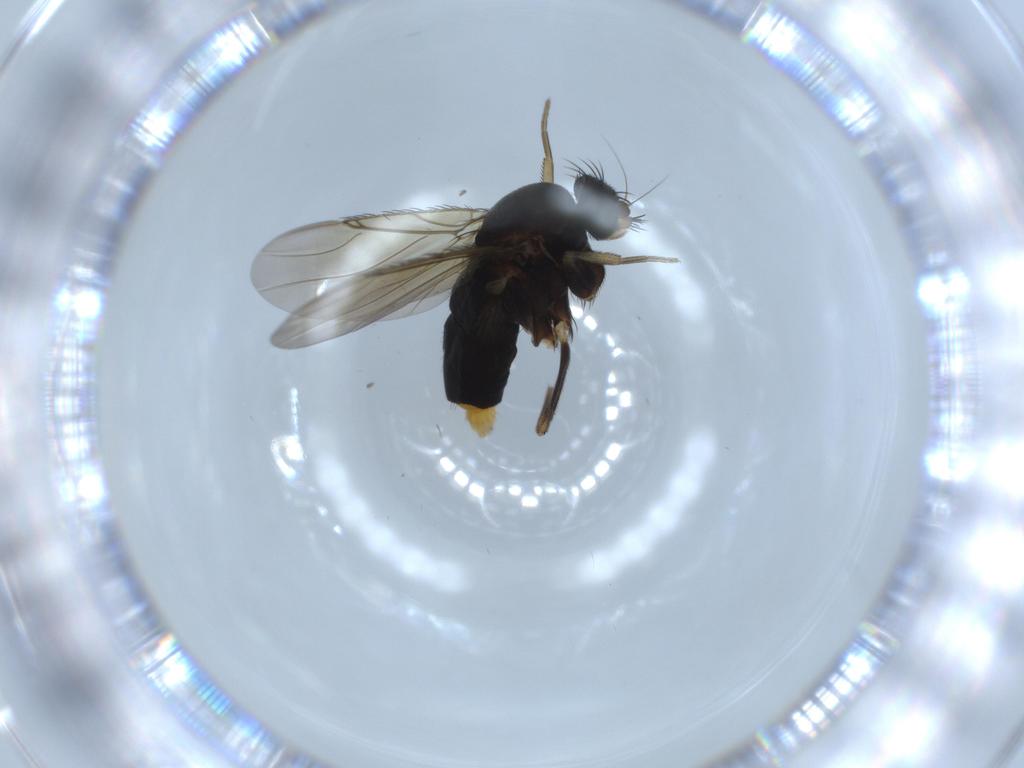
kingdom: Animalia
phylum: Arthropoda
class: Insecta
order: Diptera
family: Phoridae
